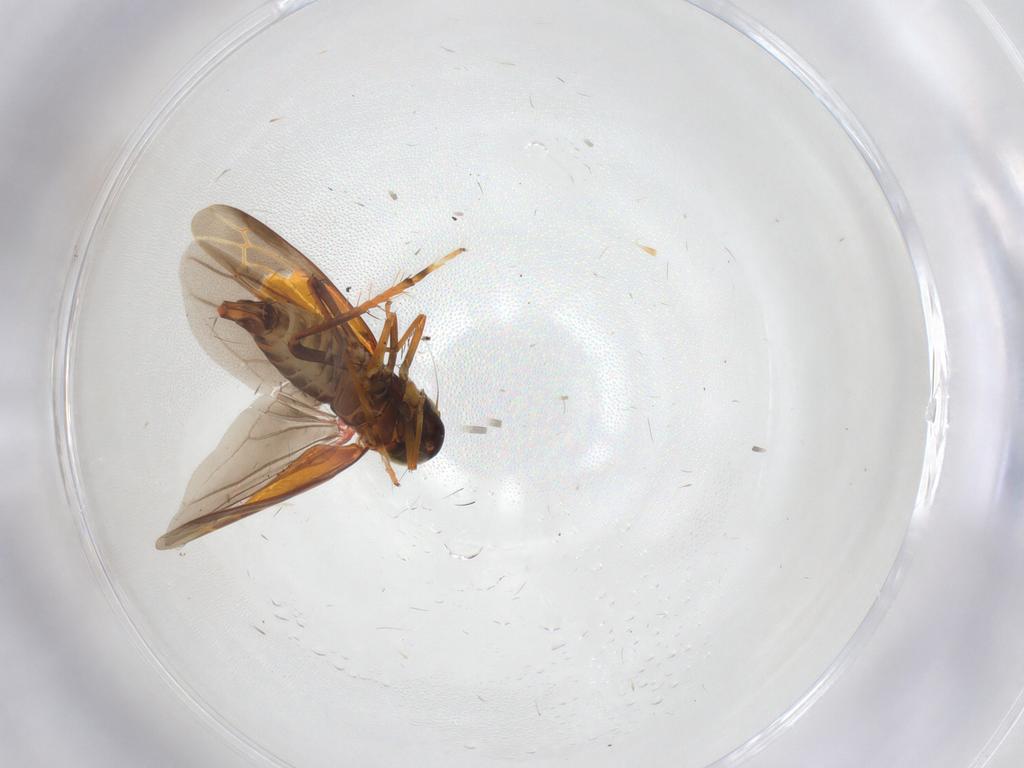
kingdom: Animalia
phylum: Arthropoda
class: Insecta
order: Hemiptera
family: Cicadellidae
